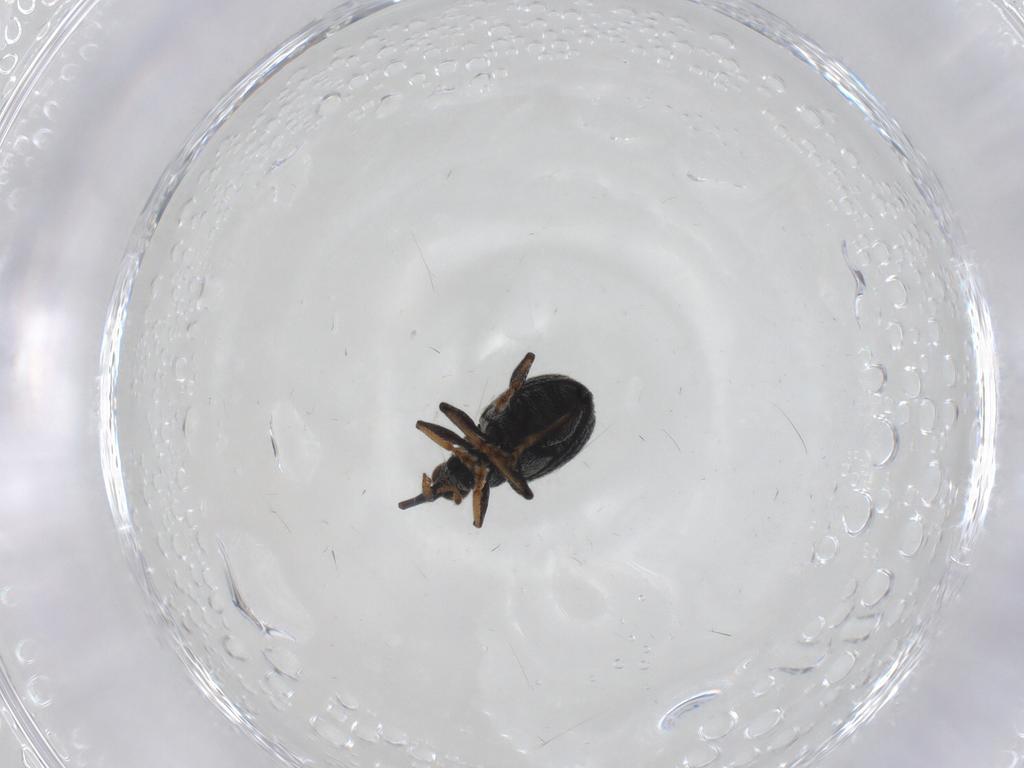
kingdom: Animalia
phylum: Arthropoda
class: Insecta
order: Coleoptera
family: Brentidae
